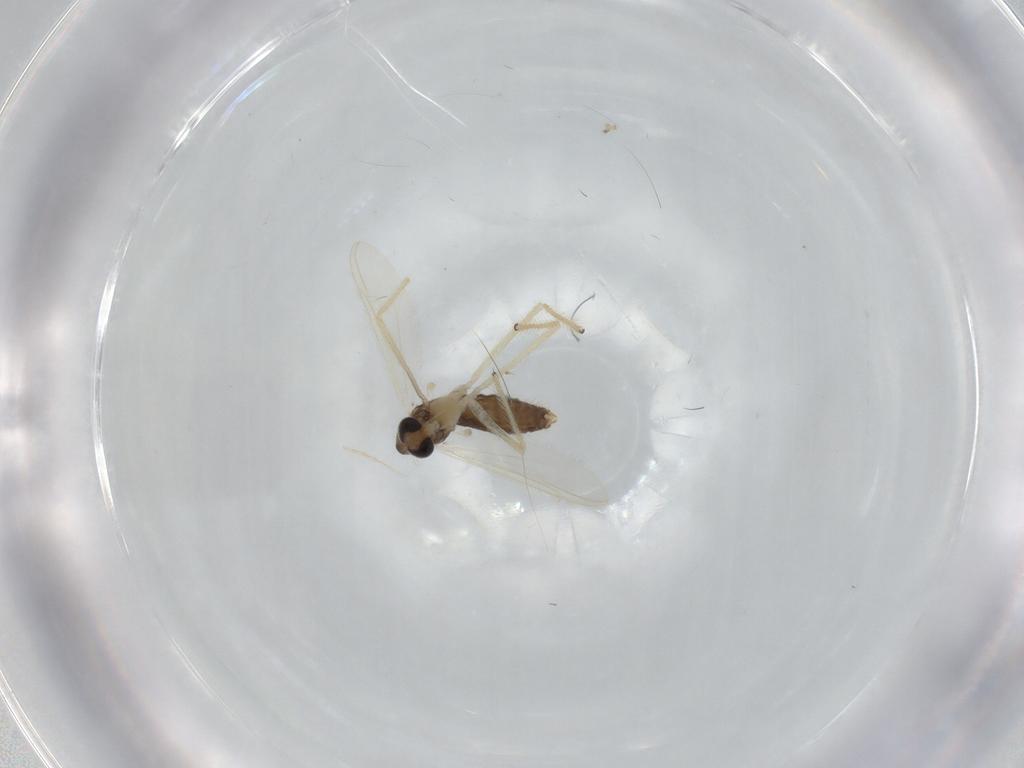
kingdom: Animalia
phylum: Arthropoda
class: Insecta
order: Diptera
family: Chironomidae
